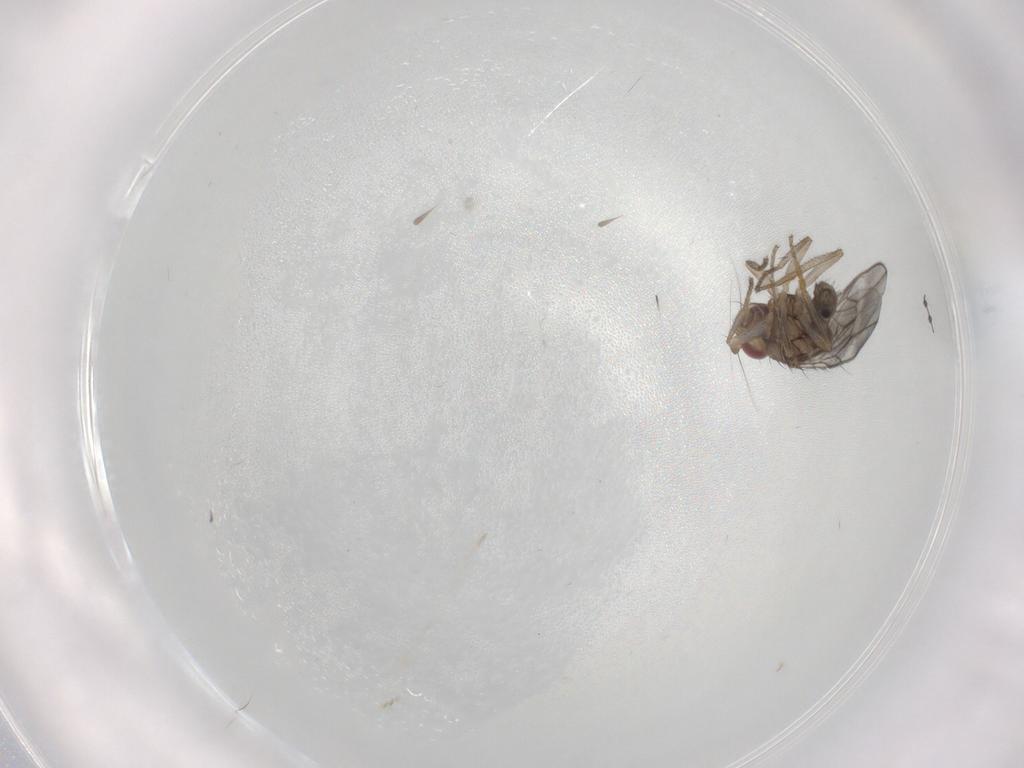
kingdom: Animalia
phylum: Arthropoda
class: Insecta
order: Diptera
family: Sphaeroceridae
